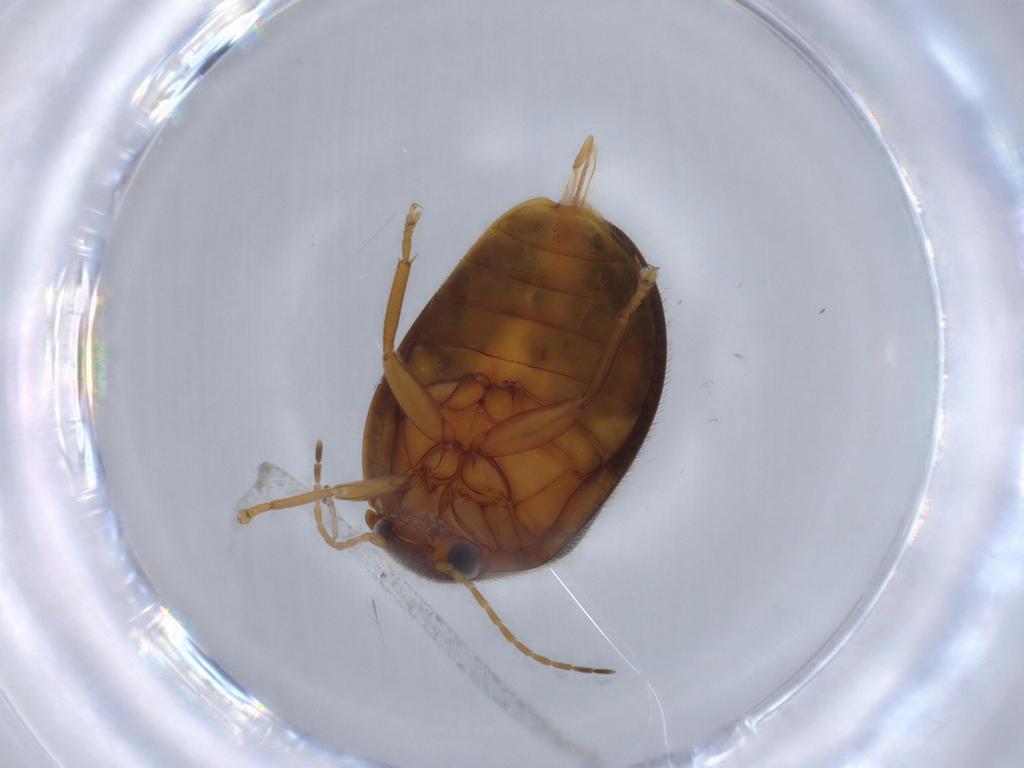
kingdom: Animalia
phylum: Arthropoda
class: Insecta
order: Coleoptera
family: Scirtidae
